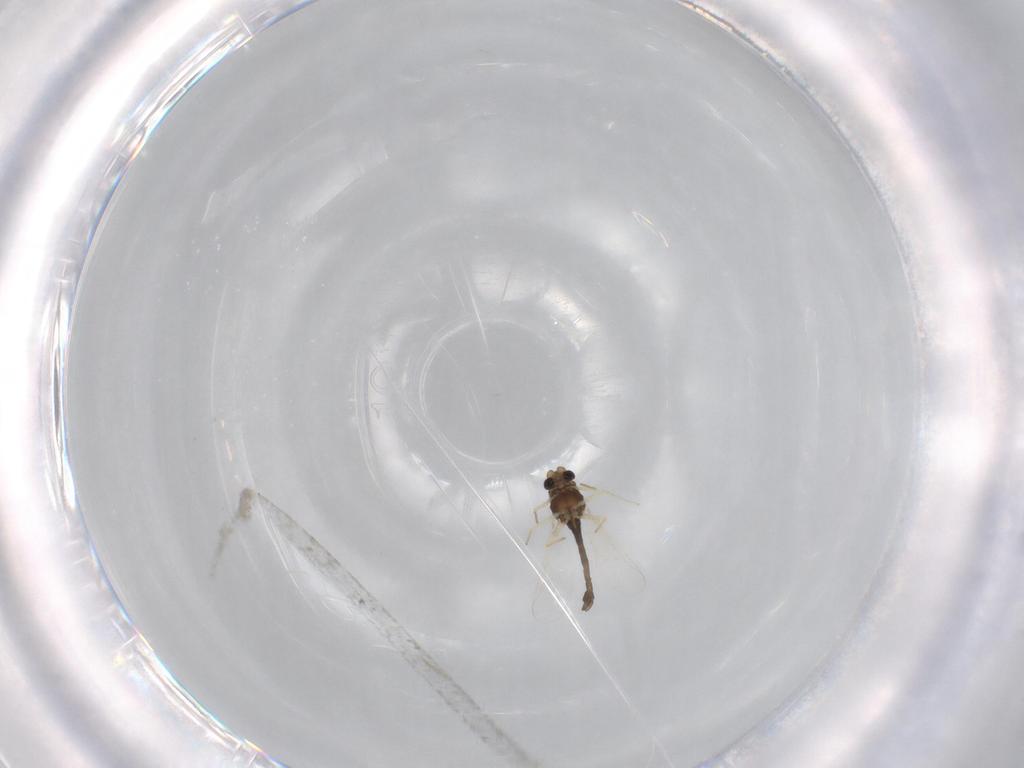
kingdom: Animalia
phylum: Arthropoda
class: Insecta
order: Diptera
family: Chironomidae
